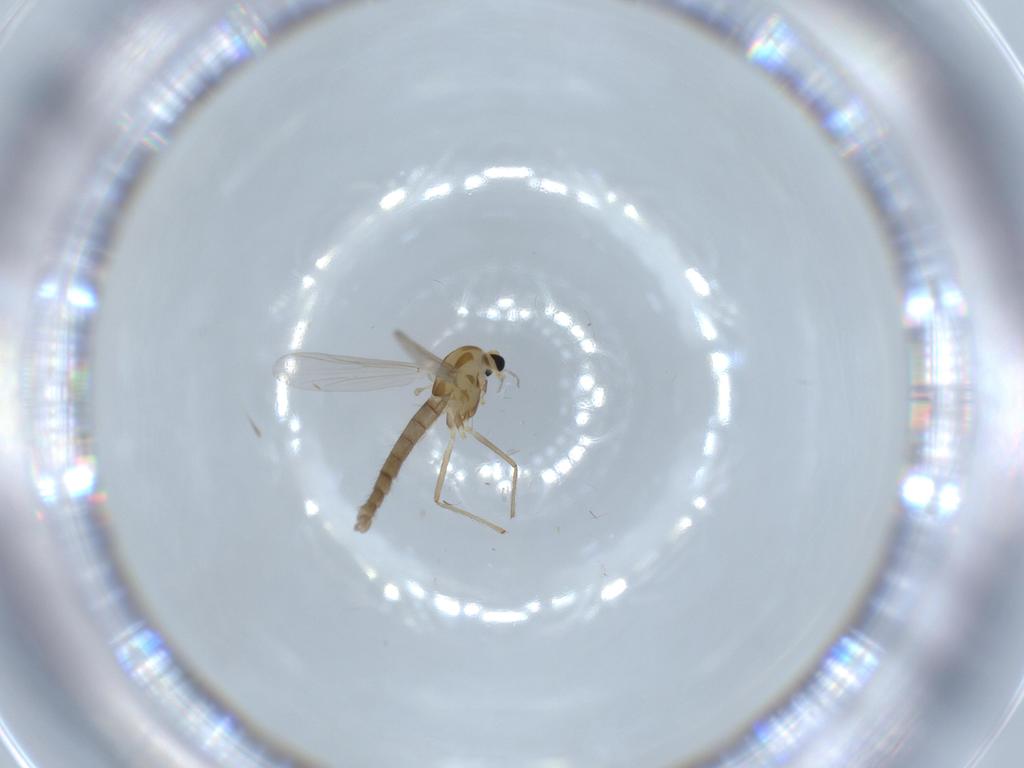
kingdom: Animalia
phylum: Arthropoda
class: Insecta
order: Diptera
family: Chironomidae
